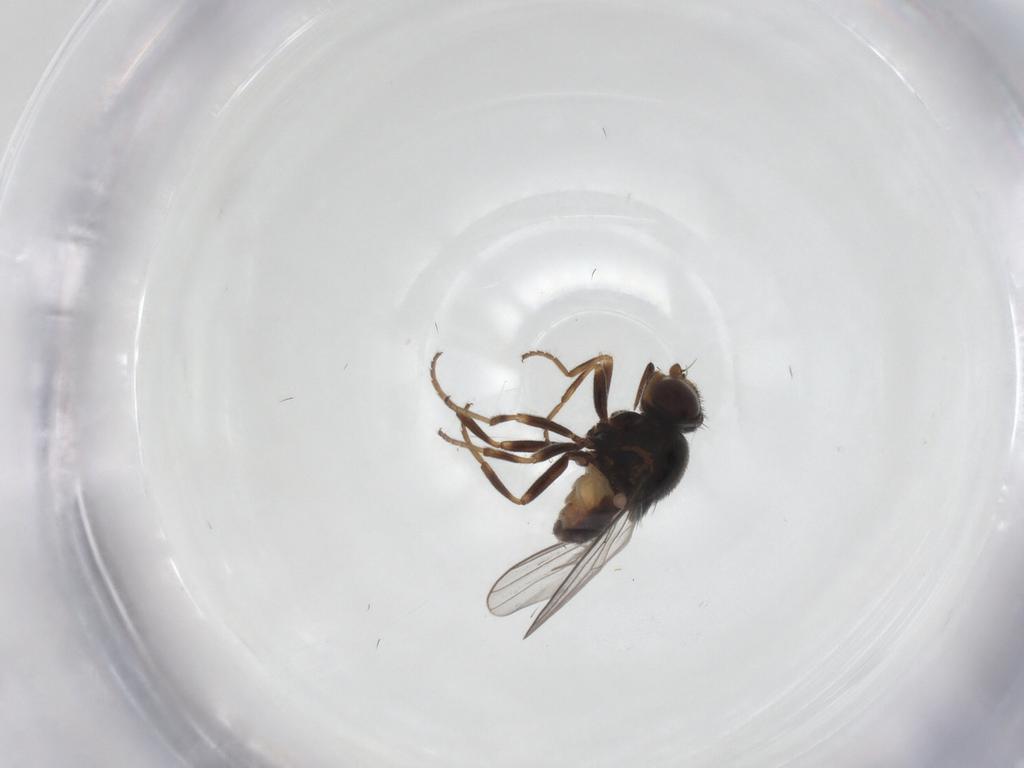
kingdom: Animalia
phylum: Arthropoda
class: Insecta
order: Diptera
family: Chloropidae
